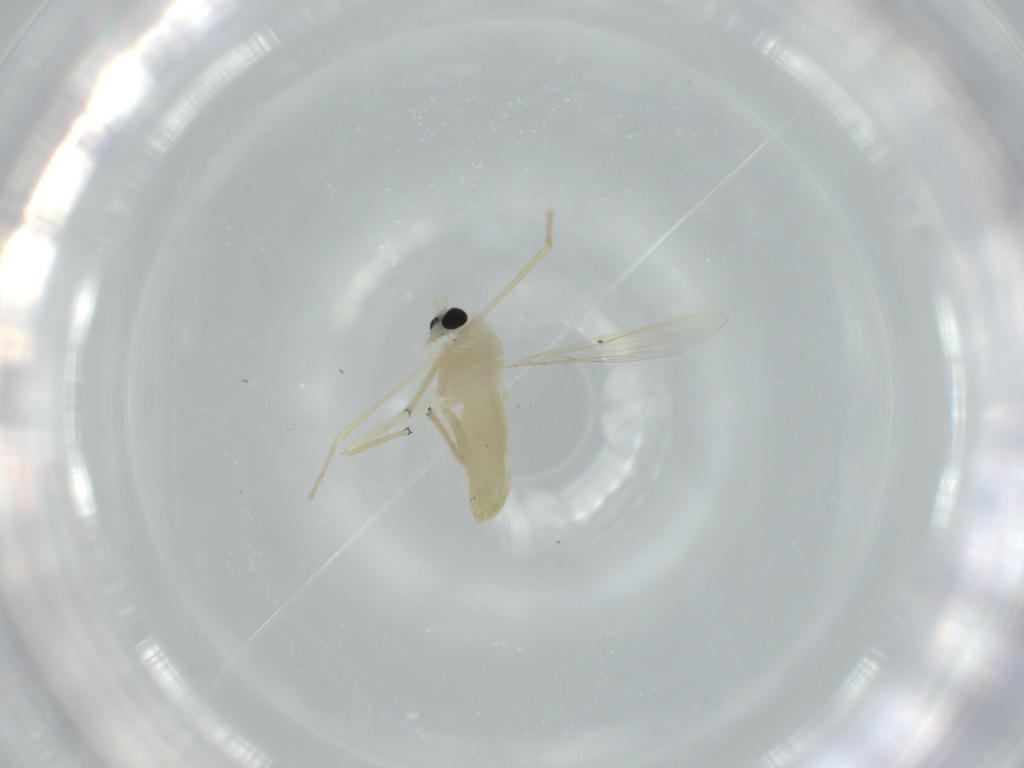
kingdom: Animalia
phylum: Arthropoda
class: Insecta
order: Diptera
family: Chironomidae
